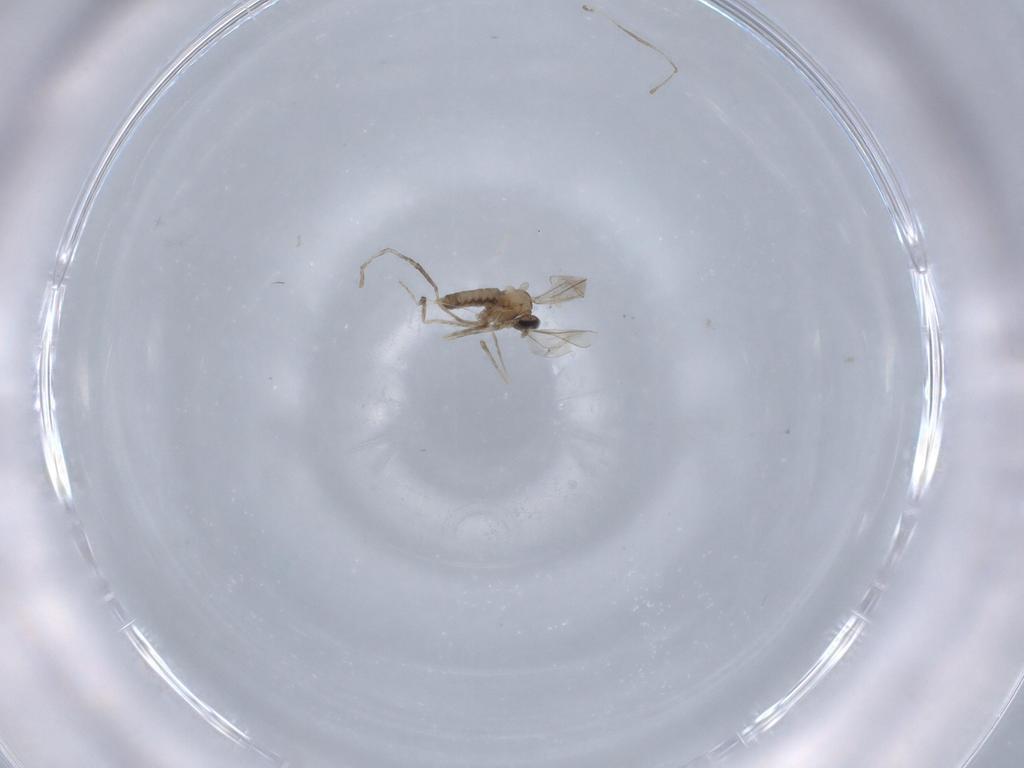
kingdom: Animalia
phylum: Arthropoda
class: Insecta
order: Diptera
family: Cecidomyiidae
